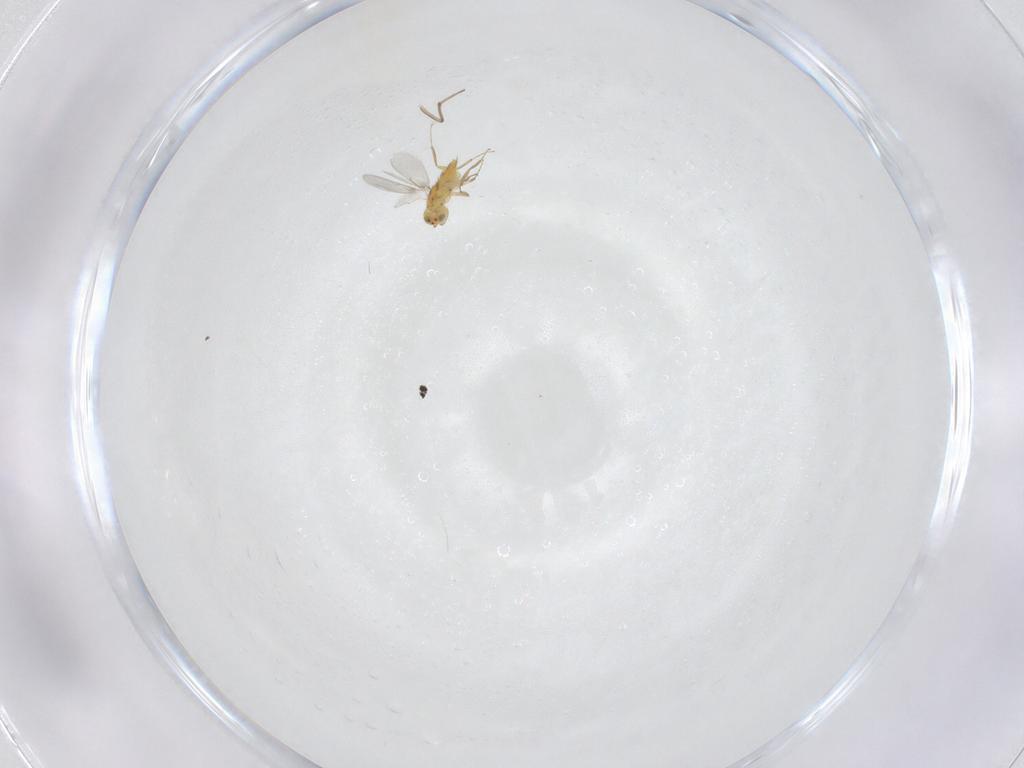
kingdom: Animalia
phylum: Arthropoda
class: Insecta
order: Hymenoptera
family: Aphelinidae
